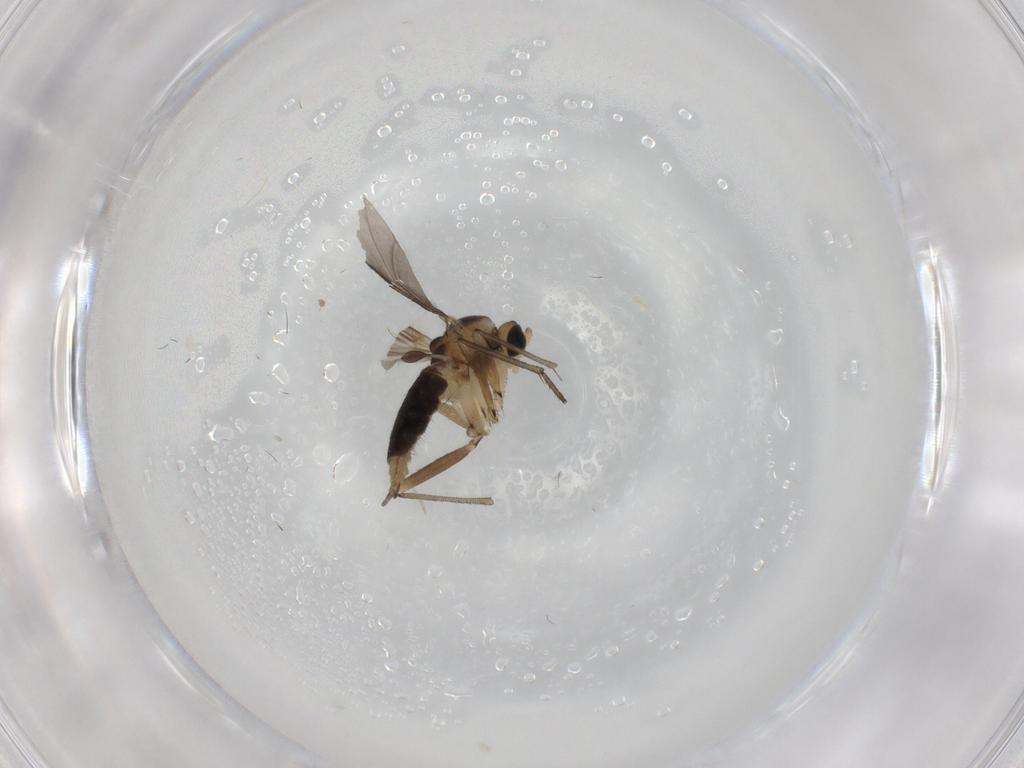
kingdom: Animalia
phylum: Arthropoda
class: Insecta
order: Diptera
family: Sciaridae
